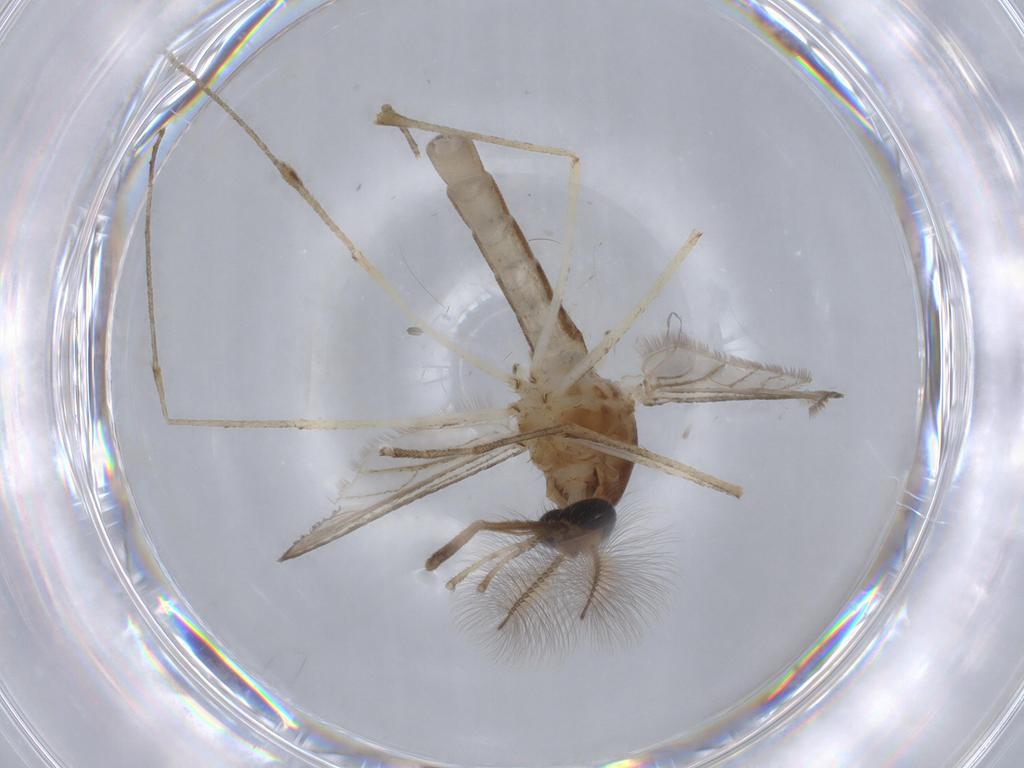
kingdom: Animalia
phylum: Arthropoda
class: Insecta
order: Diptera
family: Culicidae
